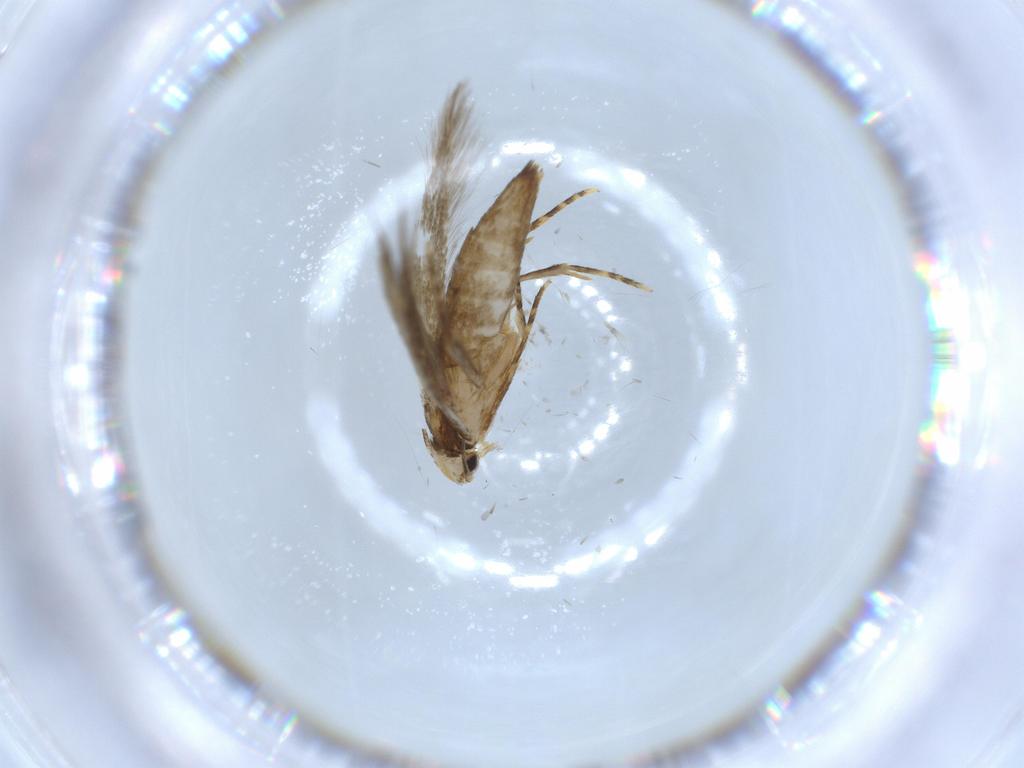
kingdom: Animalia
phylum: Arthropoda
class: Insecta
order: Lepidoptera
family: Tineidae
